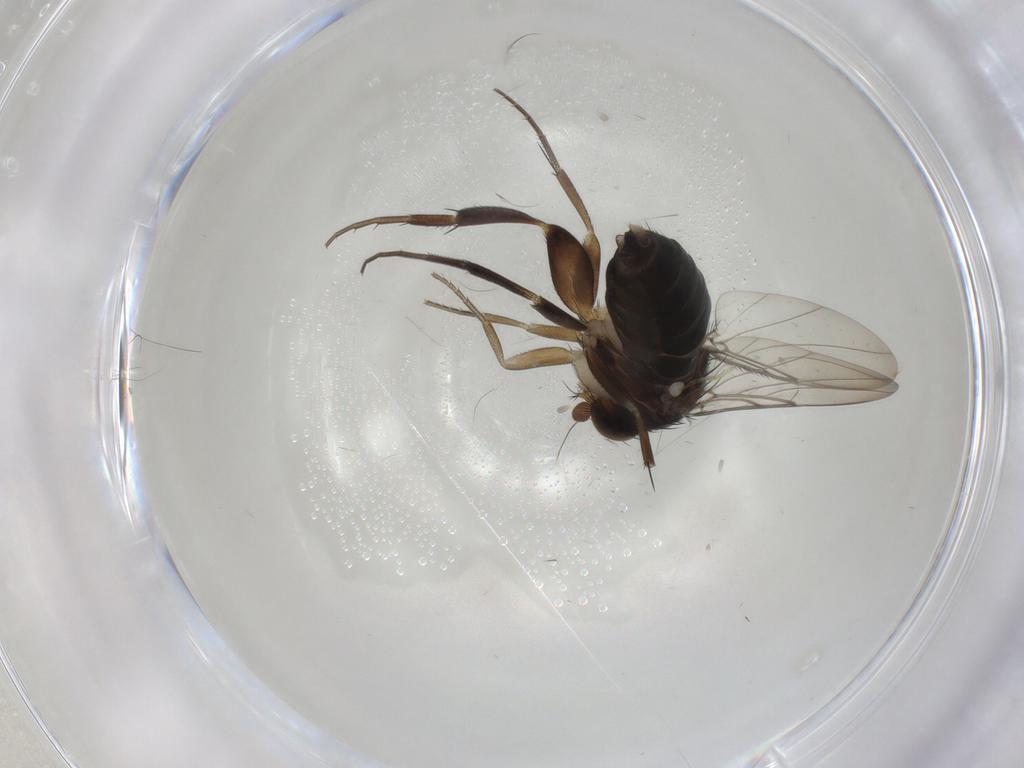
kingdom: Animalia
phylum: Arthropoda
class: Insecta
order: Diptera
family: Phoridae
